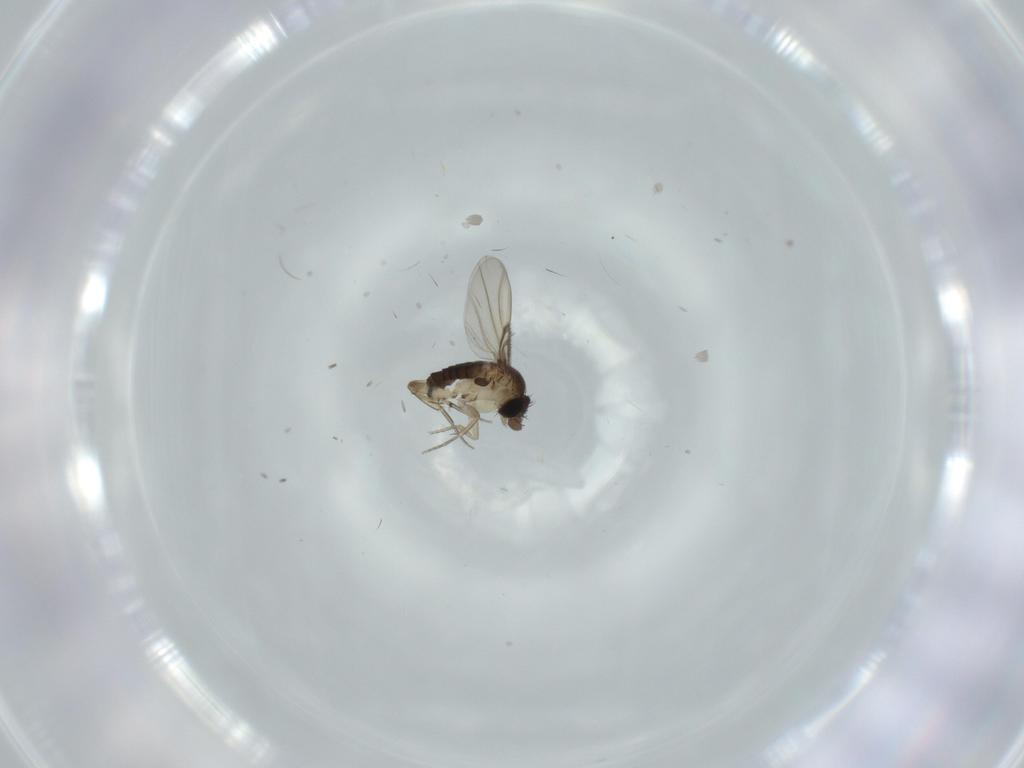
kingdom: Animalia
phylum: Arthropoda
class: Insecta
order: Diptera
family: Phoridae
